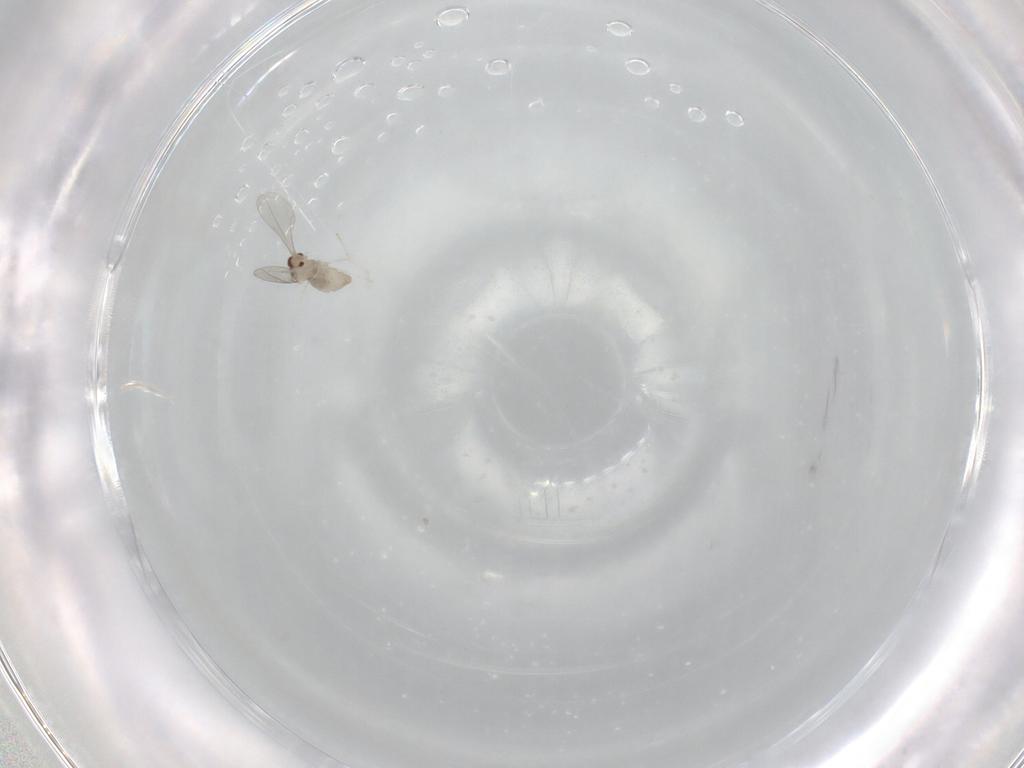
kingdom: Animalia
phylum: Arthropoda
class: Insecta
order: Diptera
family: Cecidomyiidae
